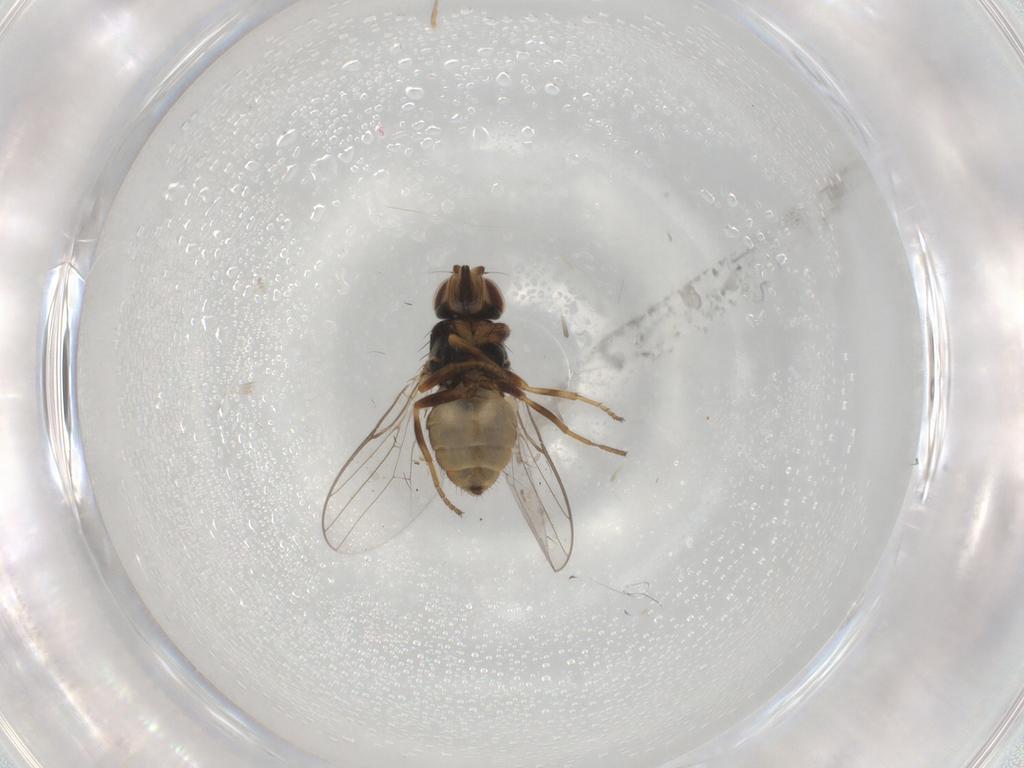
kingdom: Animalia
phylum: Arthropoda
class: Insecta
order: Diptera
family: Chloropidae
